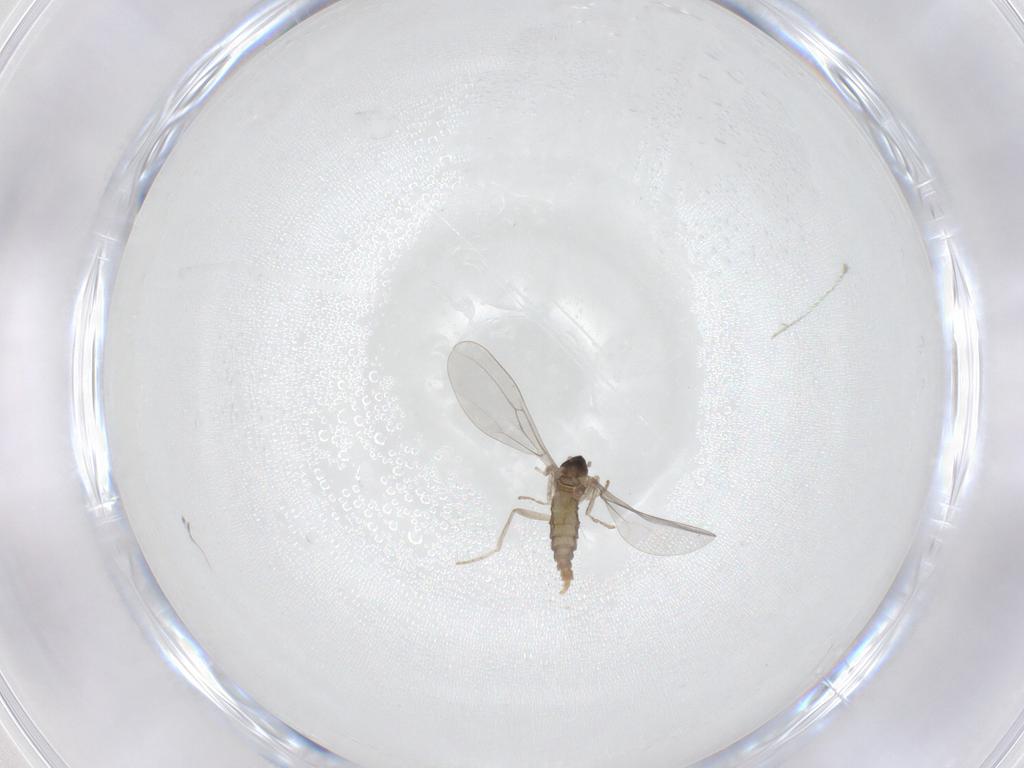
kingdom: Animalia
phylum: Arthropoda
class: Insecta
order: Diptera
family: Cecidomyiidae
